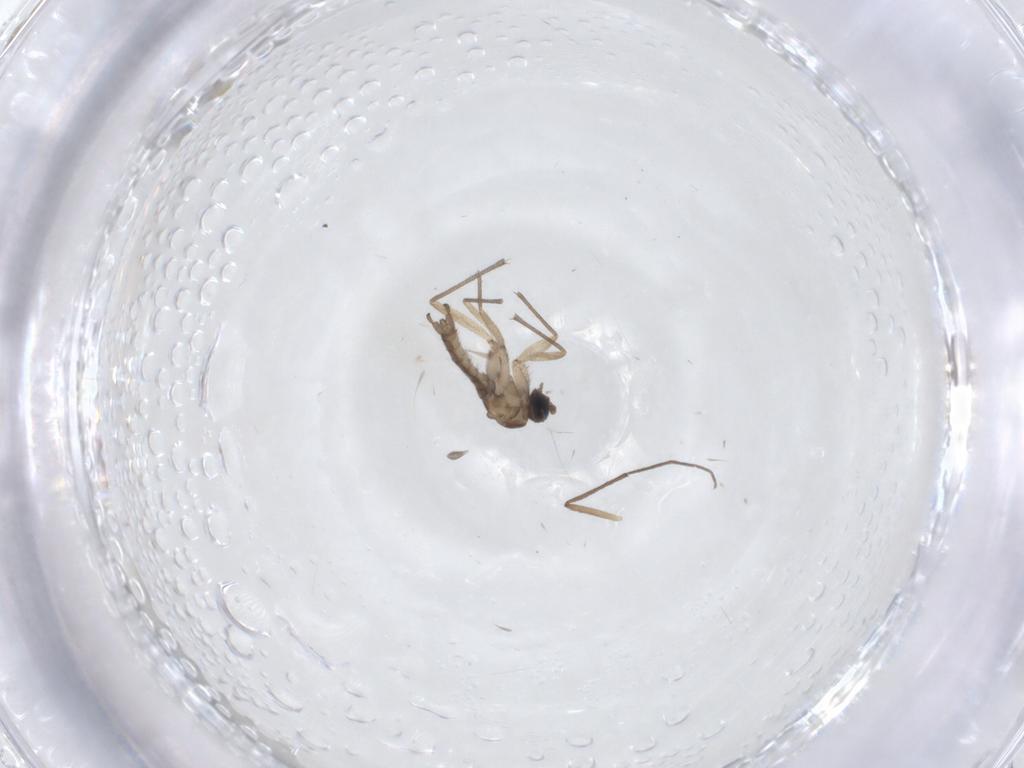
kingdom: Animalia
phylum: Arthropoda
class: Insecta
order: Diptera
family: Chironomidae
